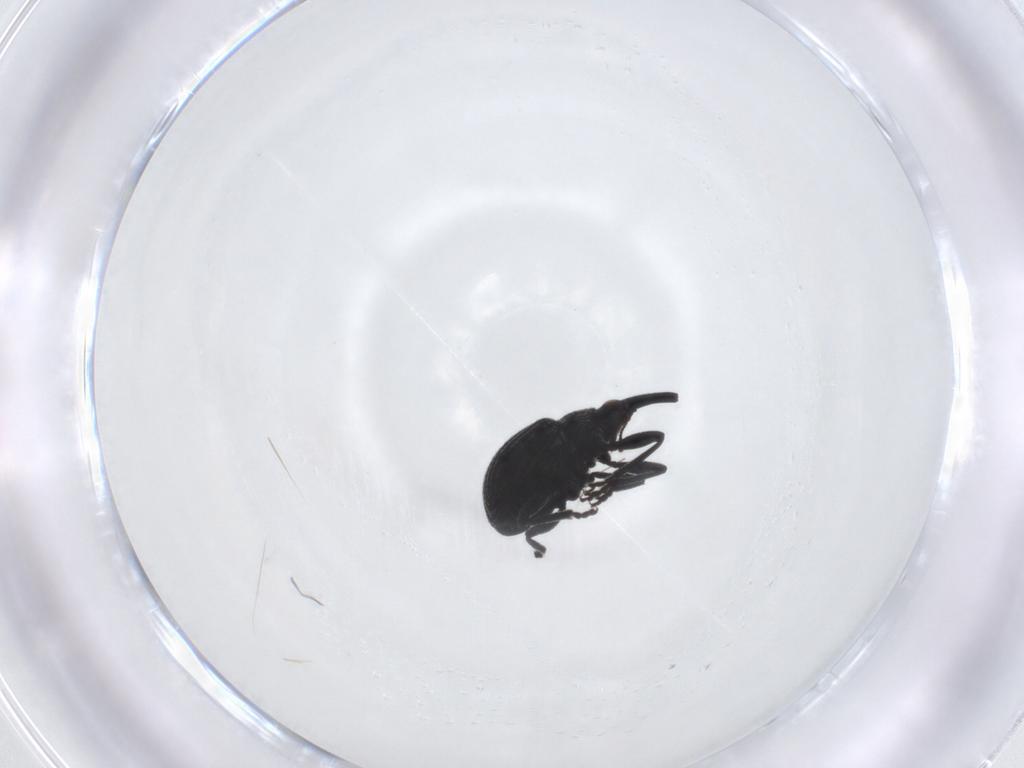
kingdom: Animalia
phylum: Arthropoda
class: Insecta
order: Coleoptera
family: Brentidae
